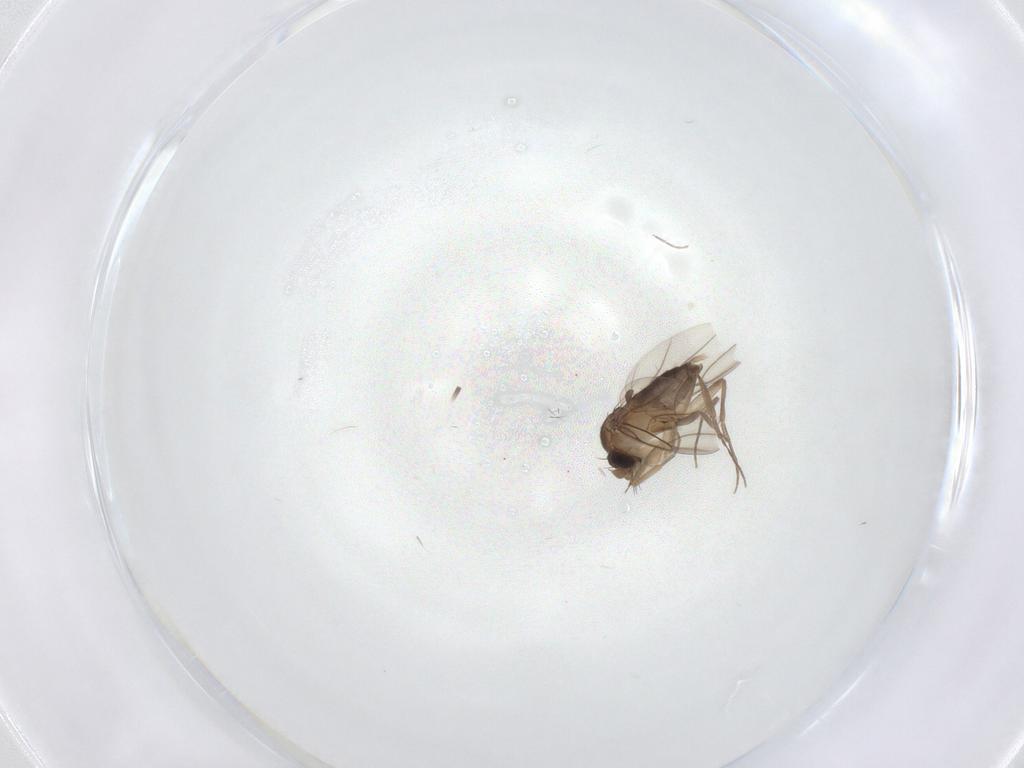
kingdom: Animalia
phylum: Arthropoda
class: Insecta
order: Diptera
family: Phoridae
